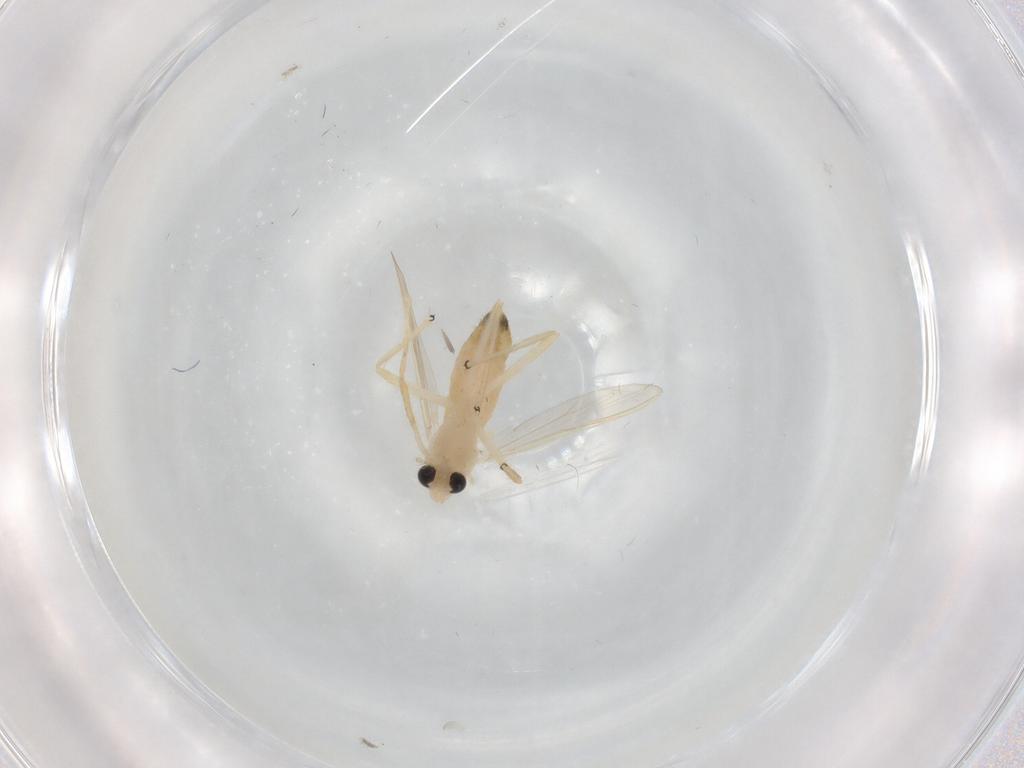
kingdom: Animalia
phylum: Arthropoda
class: Insecta
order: Diptera
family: Chironomidae
